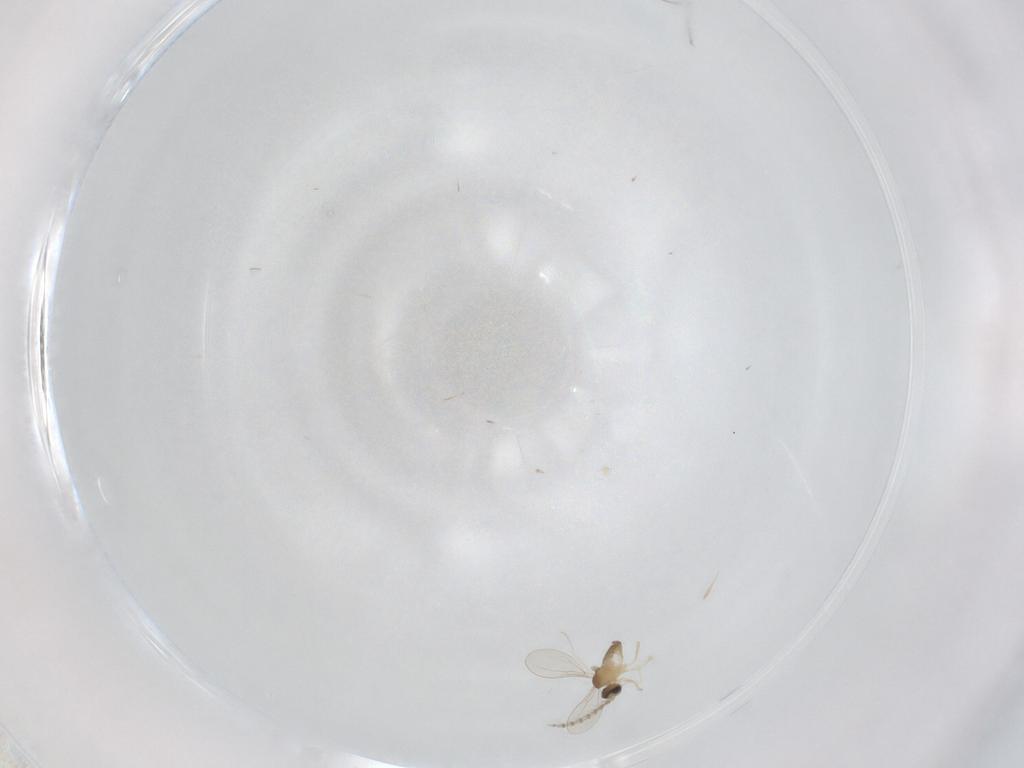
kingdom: Animalia
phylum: Arthropoda
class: Insecta
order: Diptera
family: Cecidomyiidae
